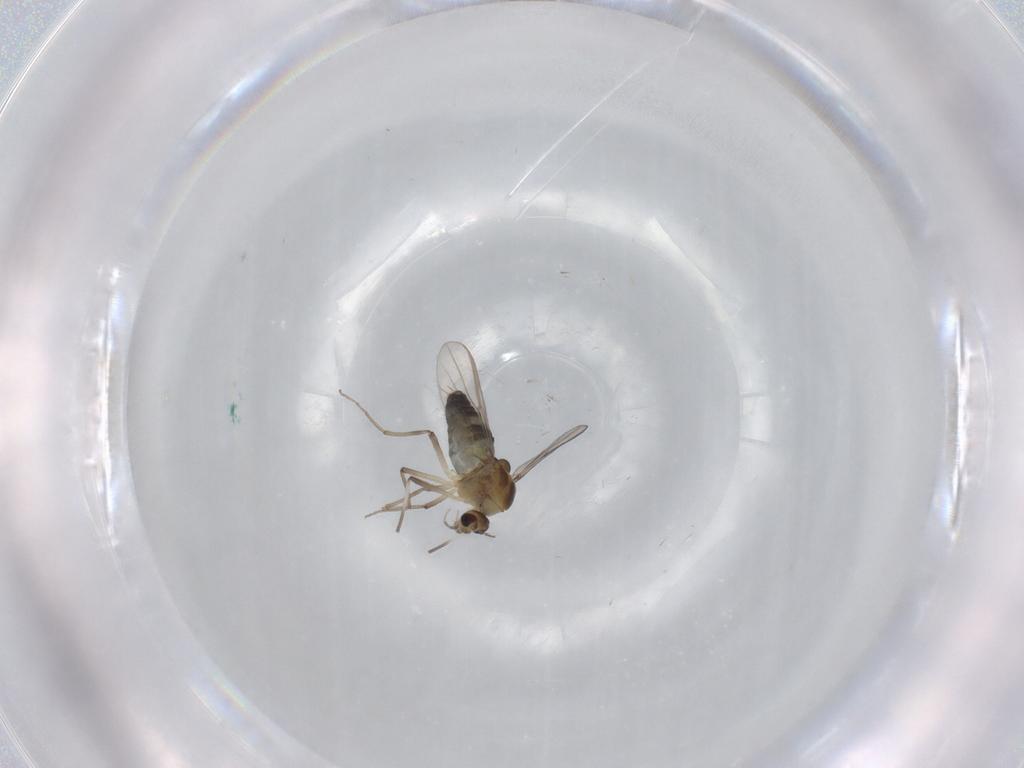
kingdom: Animalia
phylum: Arthropoda
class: Insecta
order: Diptera
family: Chironomidae
